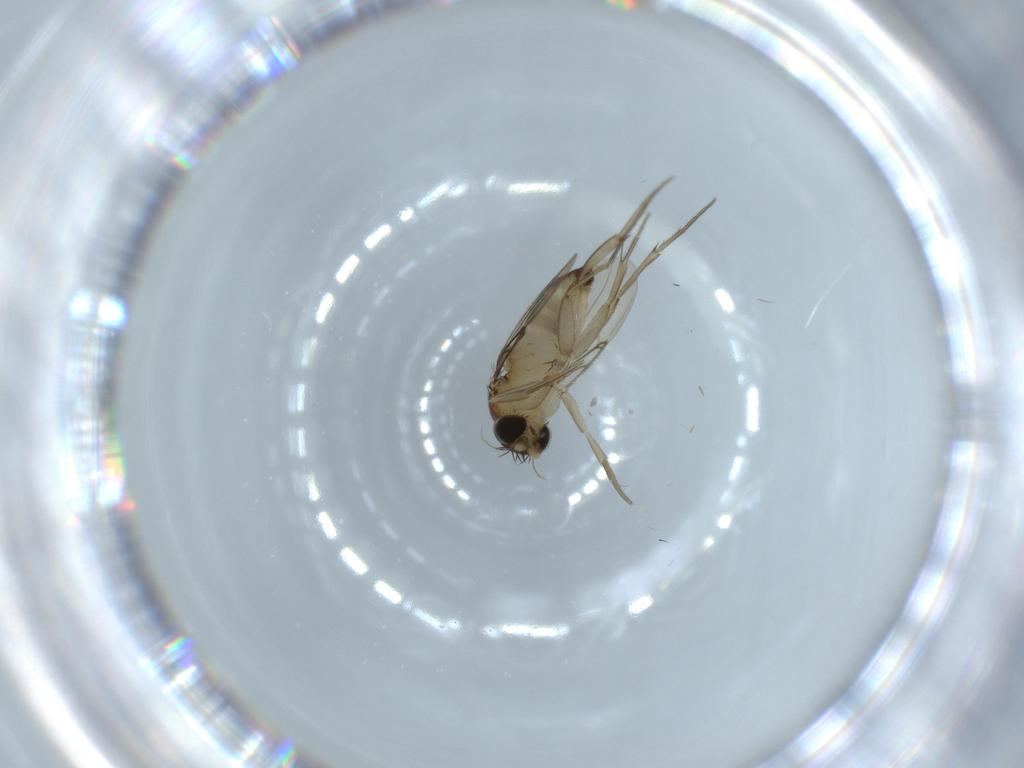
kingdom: Animalia
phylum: Arthropoda
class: Insecta
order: Diptera
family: Phoridae
